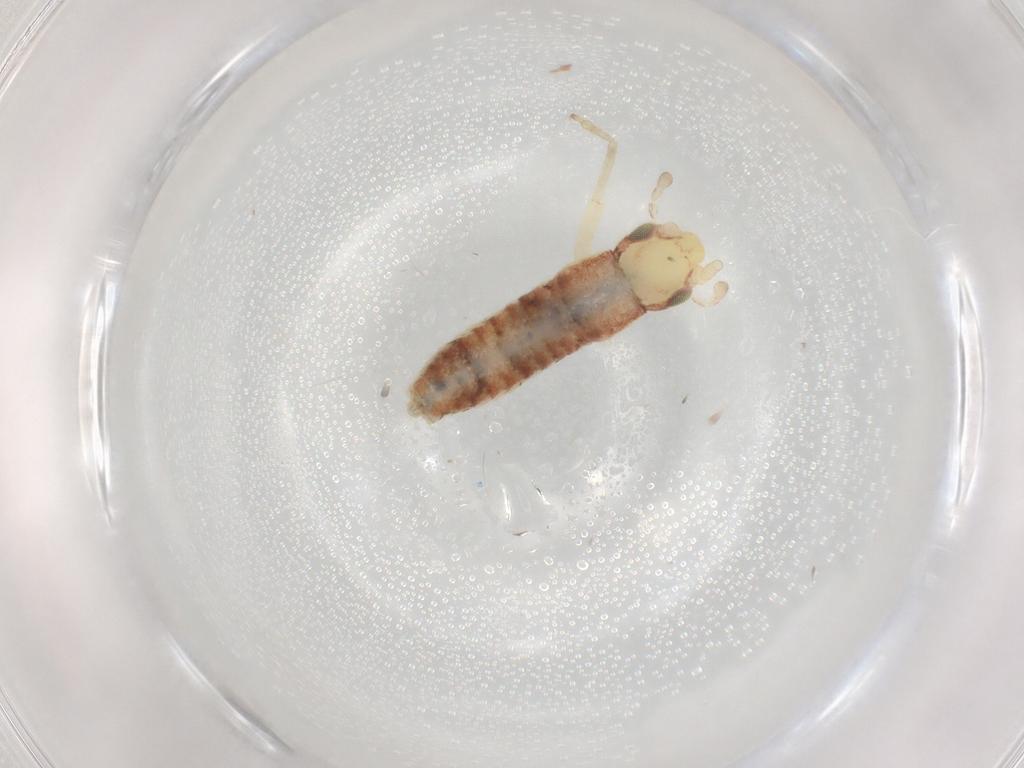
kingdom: Animalia
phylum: Arthropoda
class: Insecta
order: Orthoptera
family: Gryllidae
